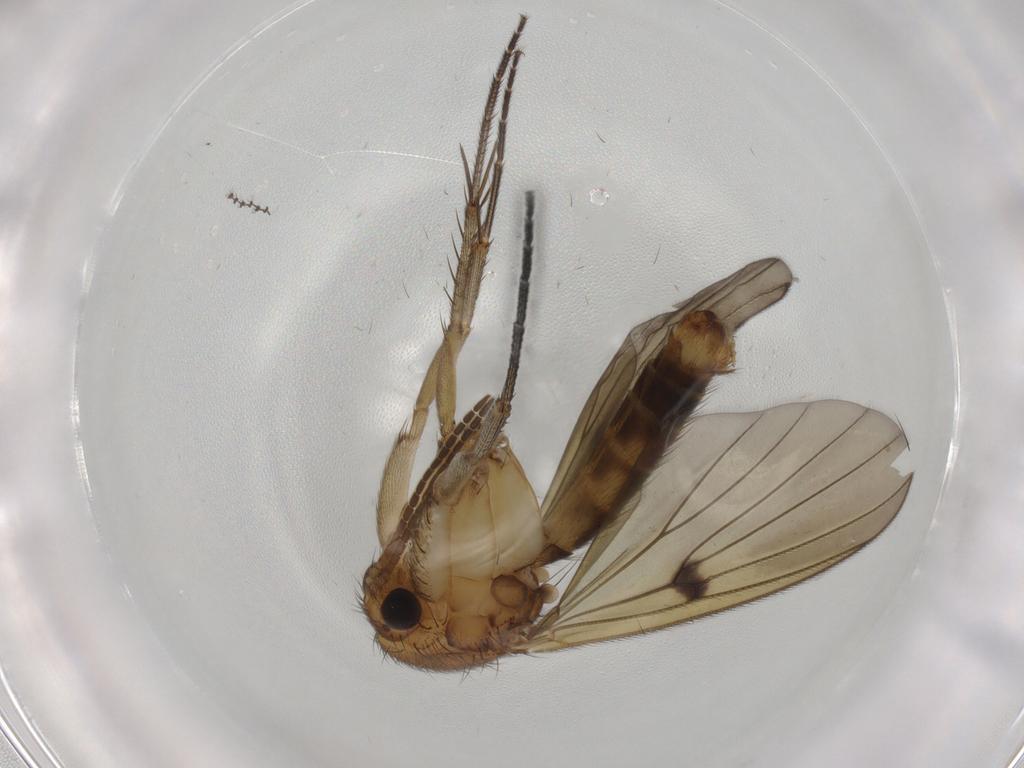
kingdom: Animalia
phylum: Arthropoda
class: Insecta
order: Diptera
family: Mycetophilidae
